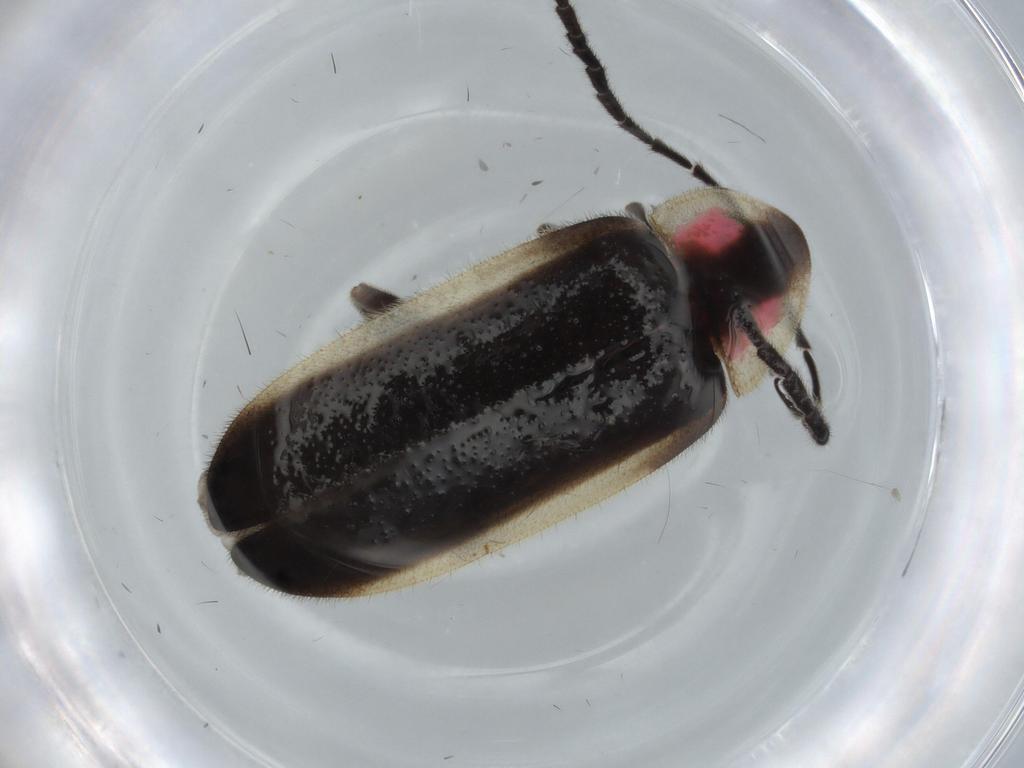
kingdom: Animalia
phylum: Arthropoda
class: Insecta
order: Coleoptera
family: Lampyridae
